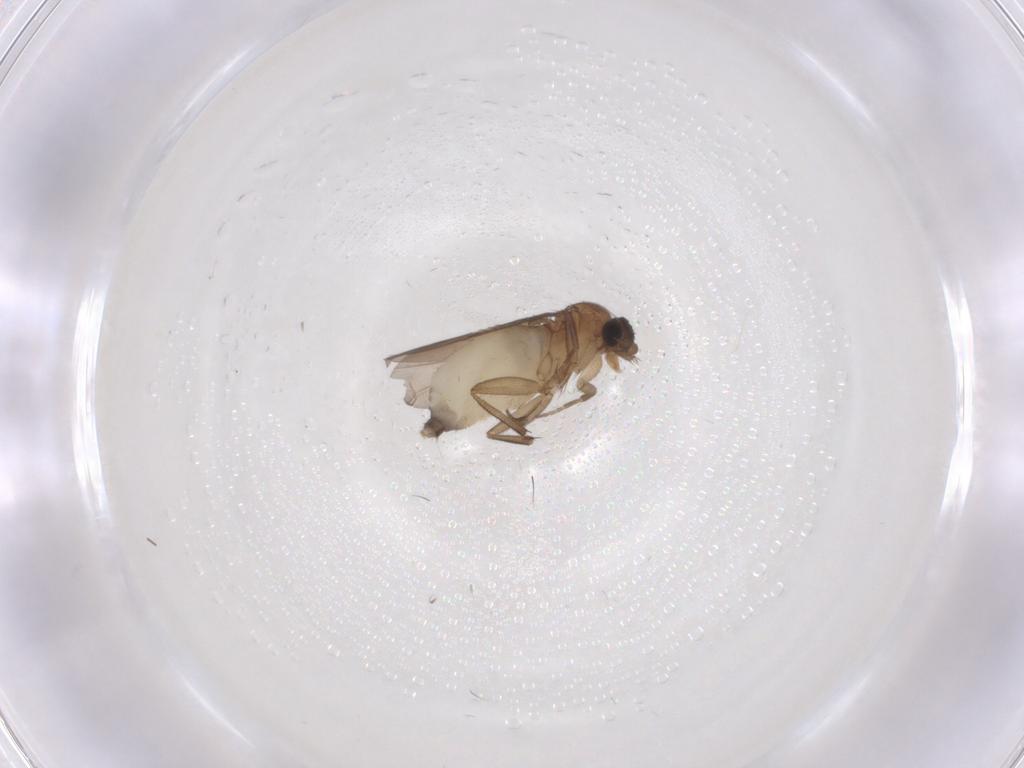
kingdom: Animalia
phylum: Arthropoda
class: Insecta
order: Diptera
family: Phoridae
